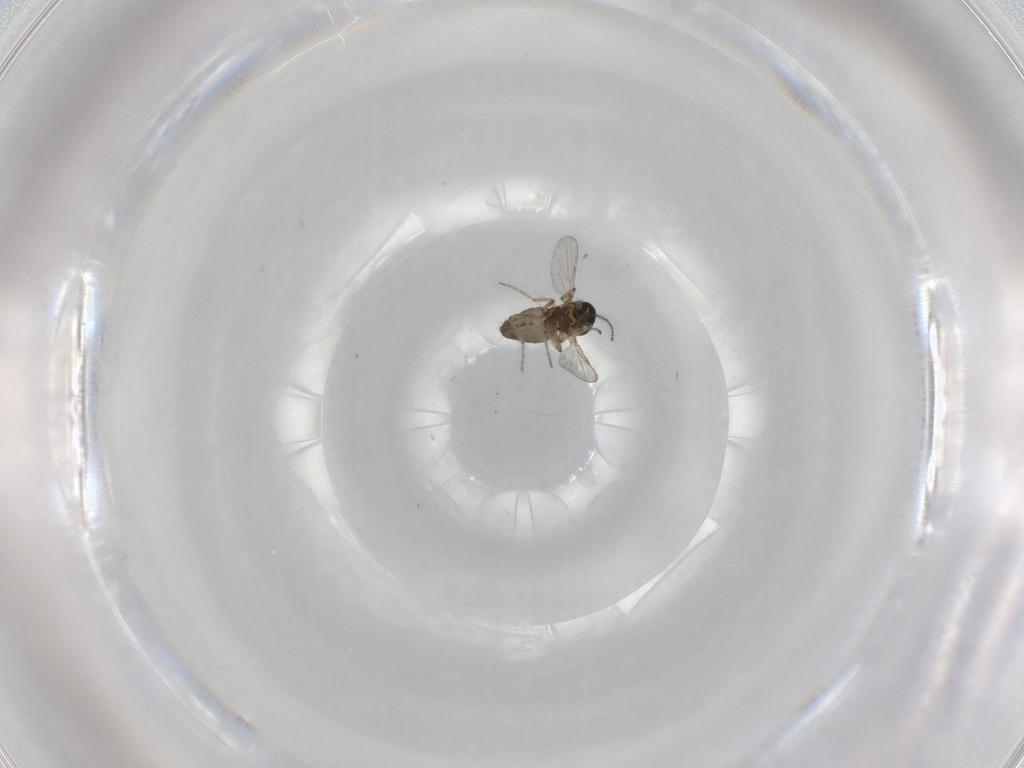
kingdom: Animalia
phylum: Arthropoda
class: Insecta
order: Diptera
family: Ceratopogonidae
